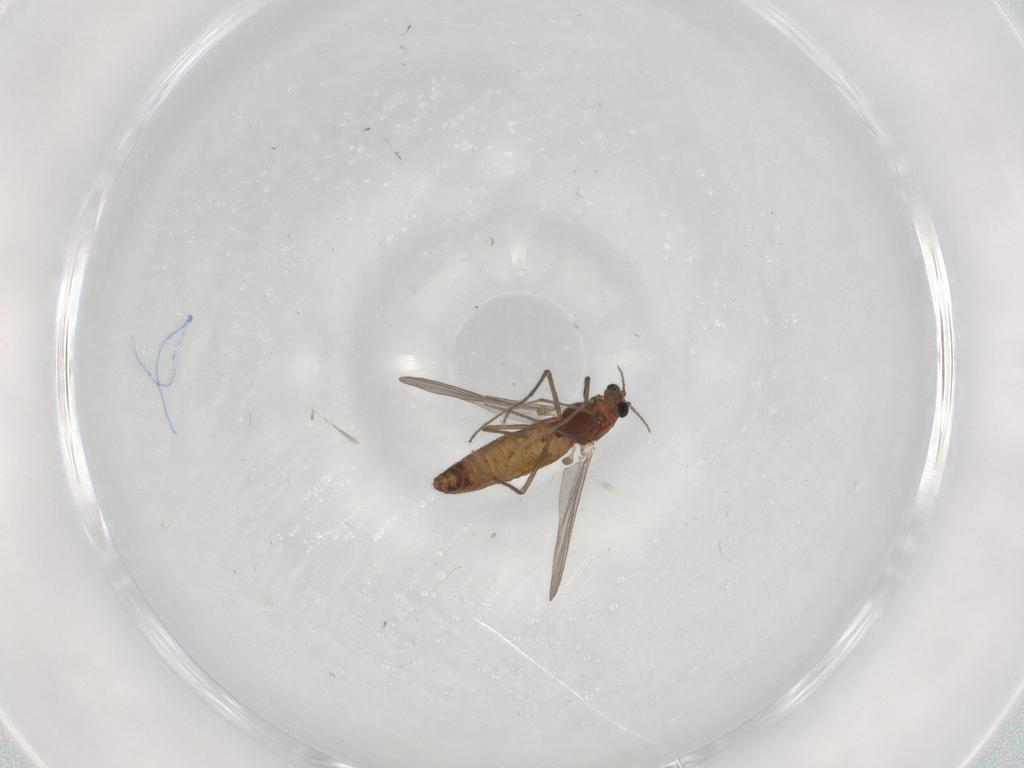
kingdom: Animalia
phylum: Arthropoda
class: Insecta
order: Diptera
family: Chironomidae
